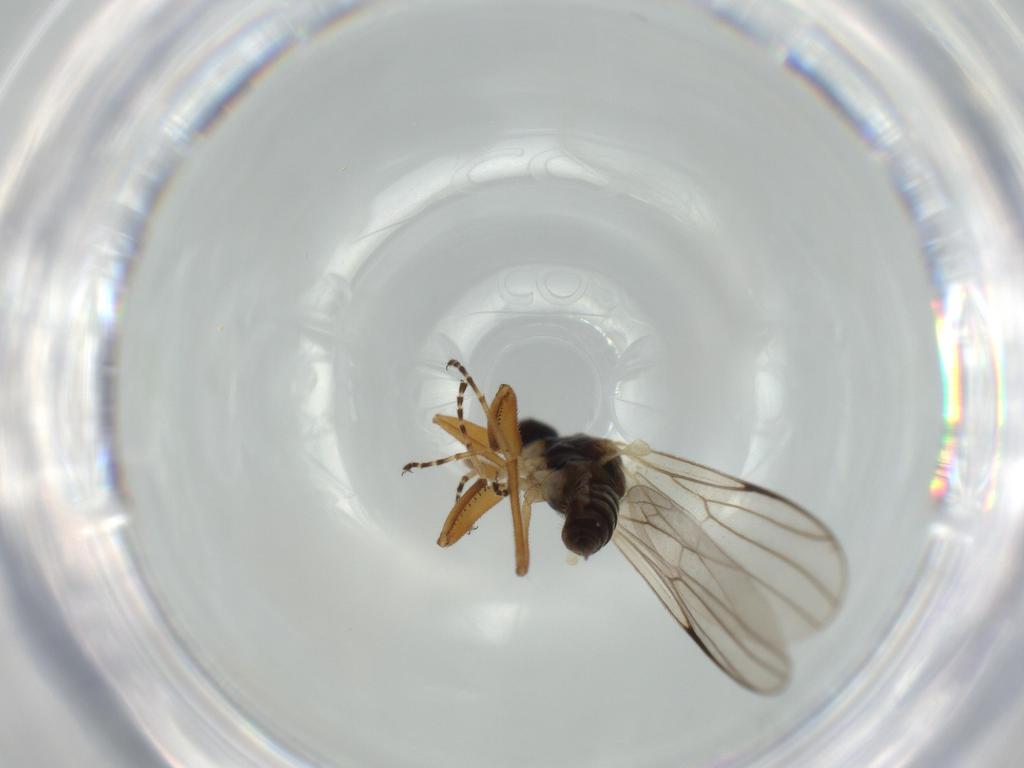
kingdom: Animalia
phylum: Arthropoda
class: Insecta
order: Diptera
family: Hybotidae
